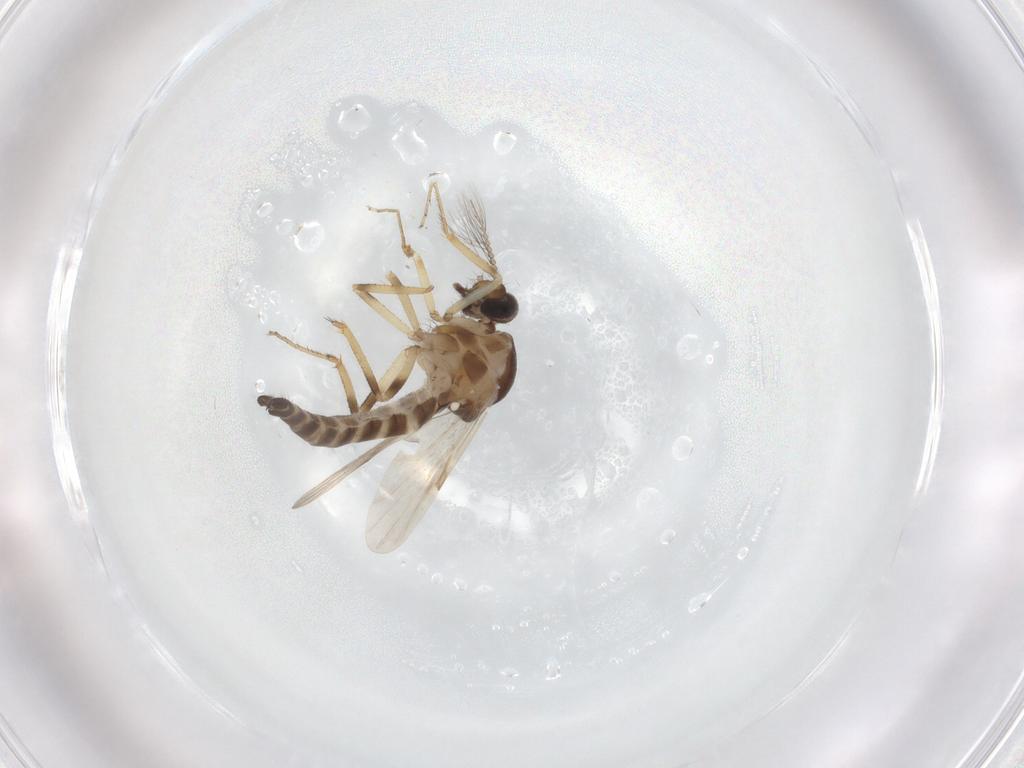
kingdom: Animalia
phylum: Arthropoda
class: Insecta
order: Diptera
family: Ceratopogonidae
